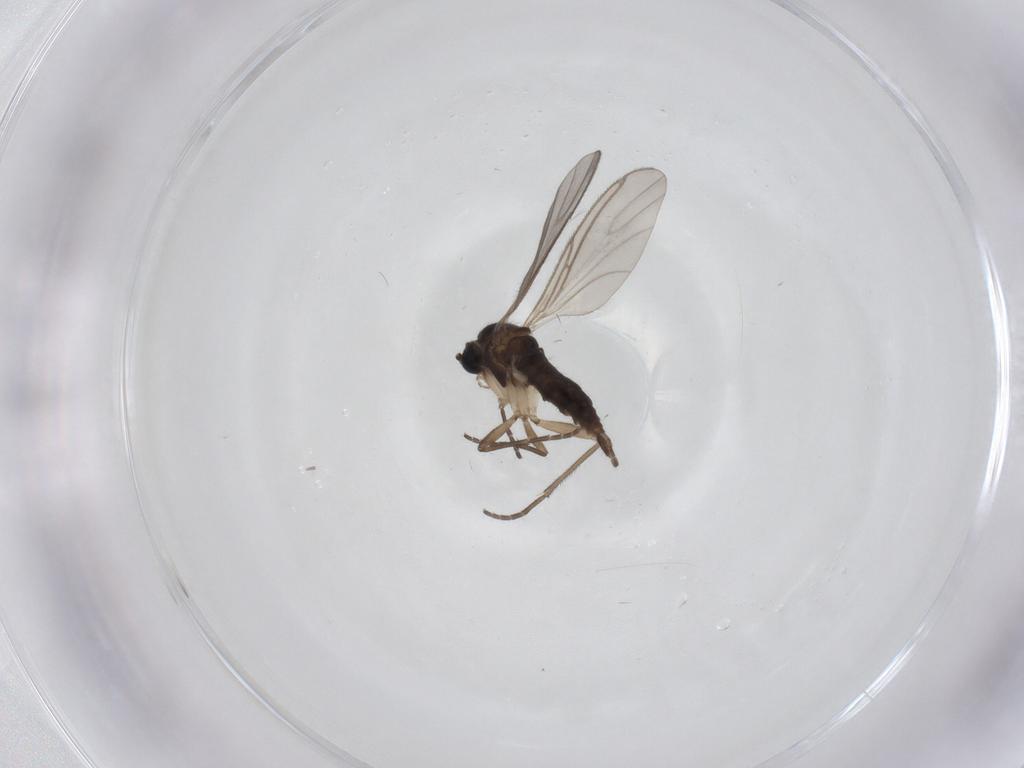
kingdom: Animalia
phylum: Arthropoda
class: Insecta
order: Diptera
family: Sciaridae
